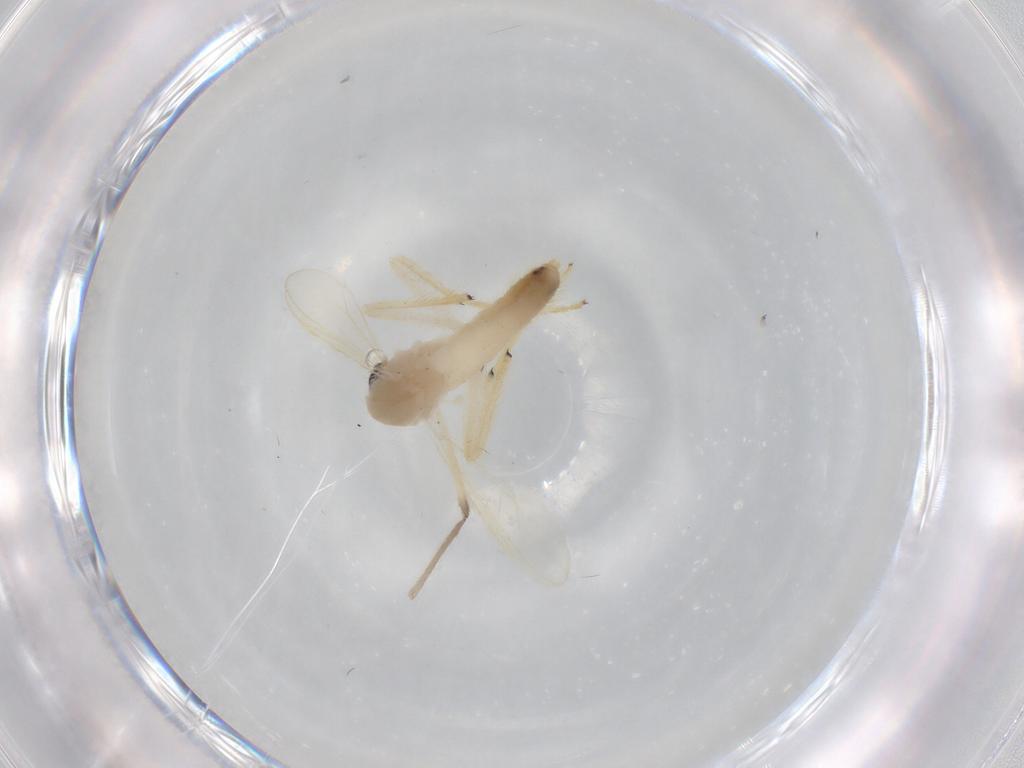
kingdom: Animalia
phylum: Arthropoda
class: Insecta
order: Diptera
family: Chironomidae
